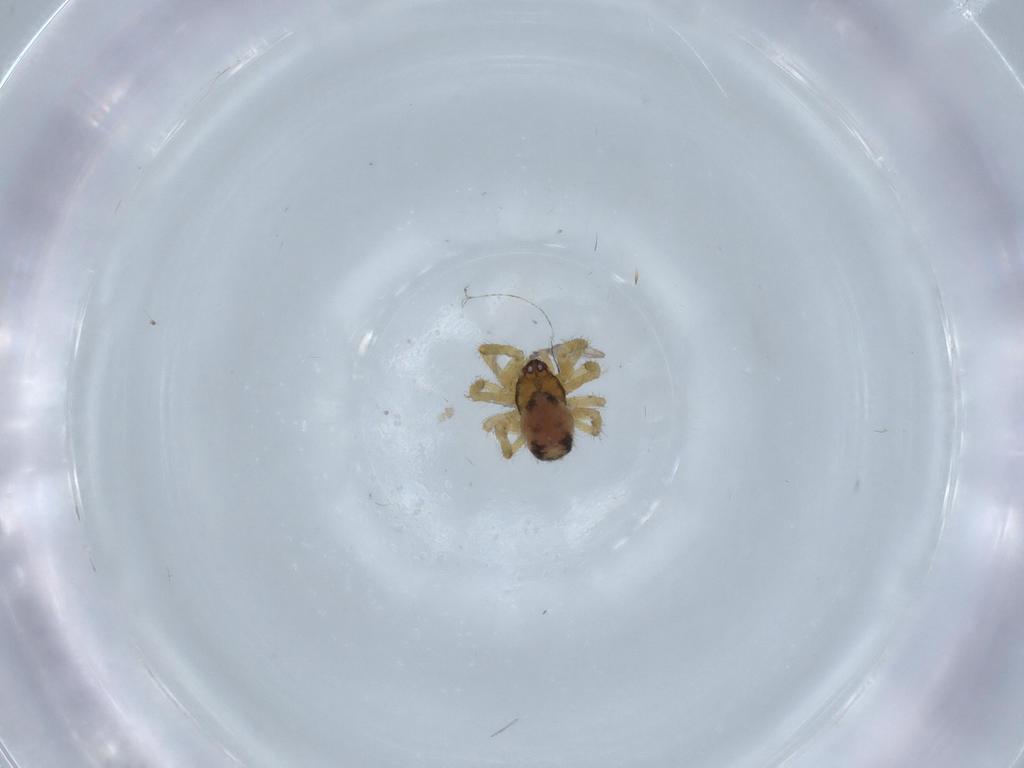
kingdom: Animalia
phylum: Arthropoda
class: Arachnida
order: Araneae
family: Theridiidae
